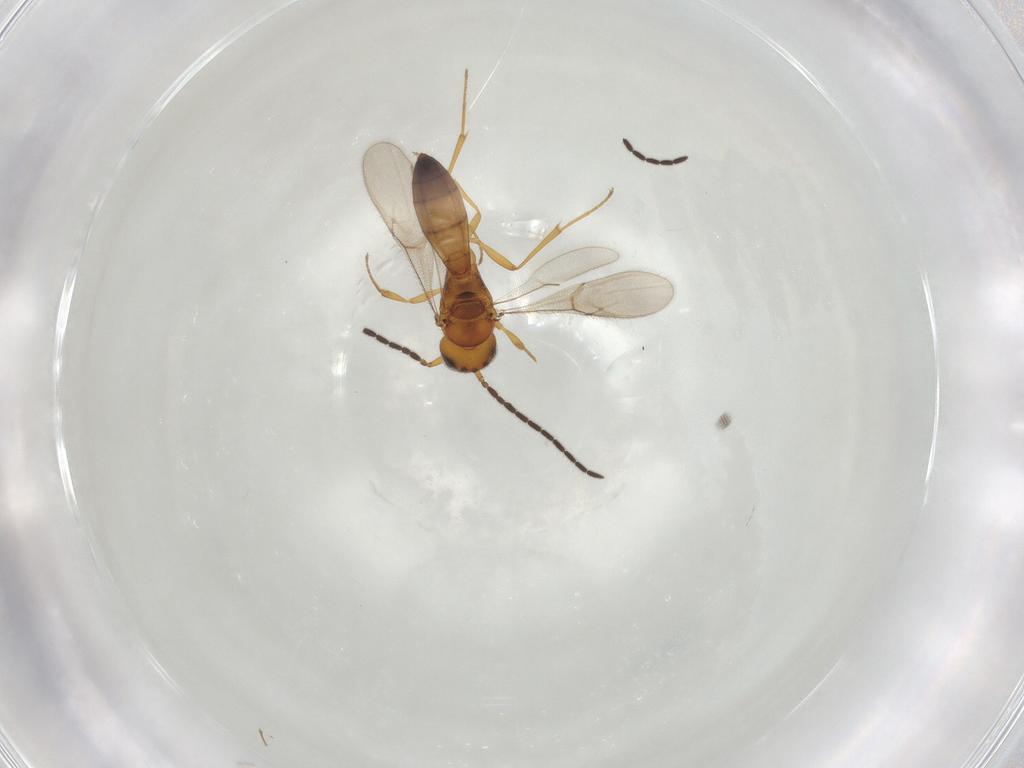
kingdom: Animalia
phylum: Arthropoda
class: Insecta
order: Hymenoptera
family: Scelionidae
